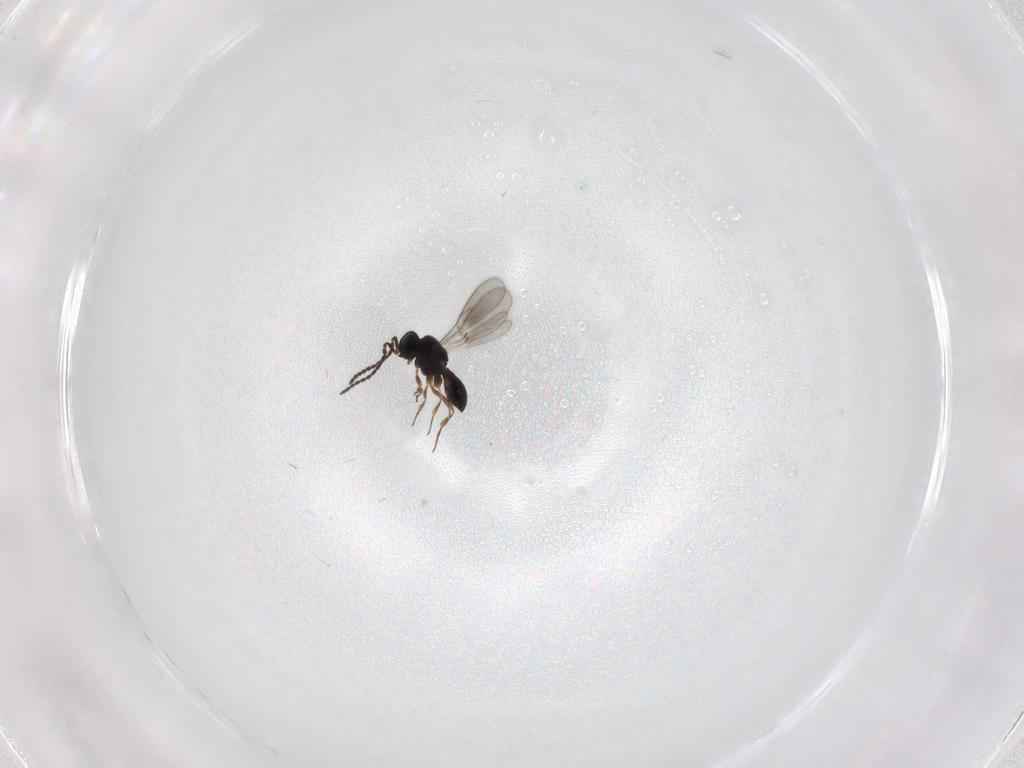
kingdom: Animalia
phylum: Arthropoda
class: Insecta
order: Hymenoptera
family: Scelionidae
